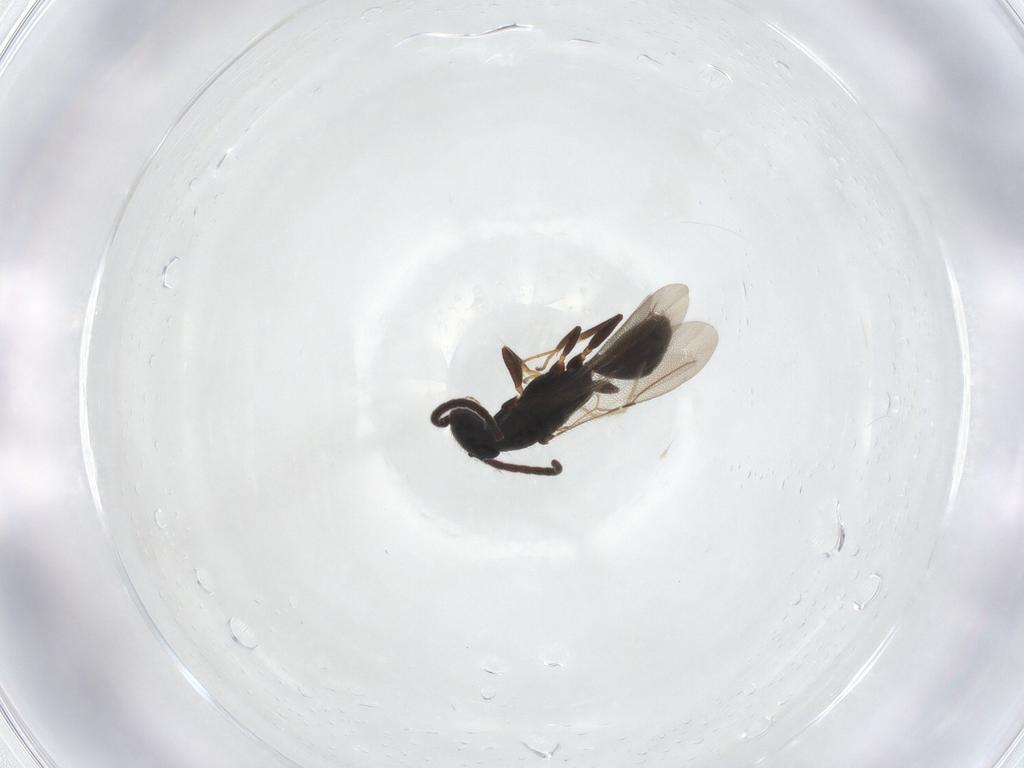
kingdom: Animalia
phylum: Arthropoda
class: Insecta
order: Hymenoptera
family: Bethylidae
